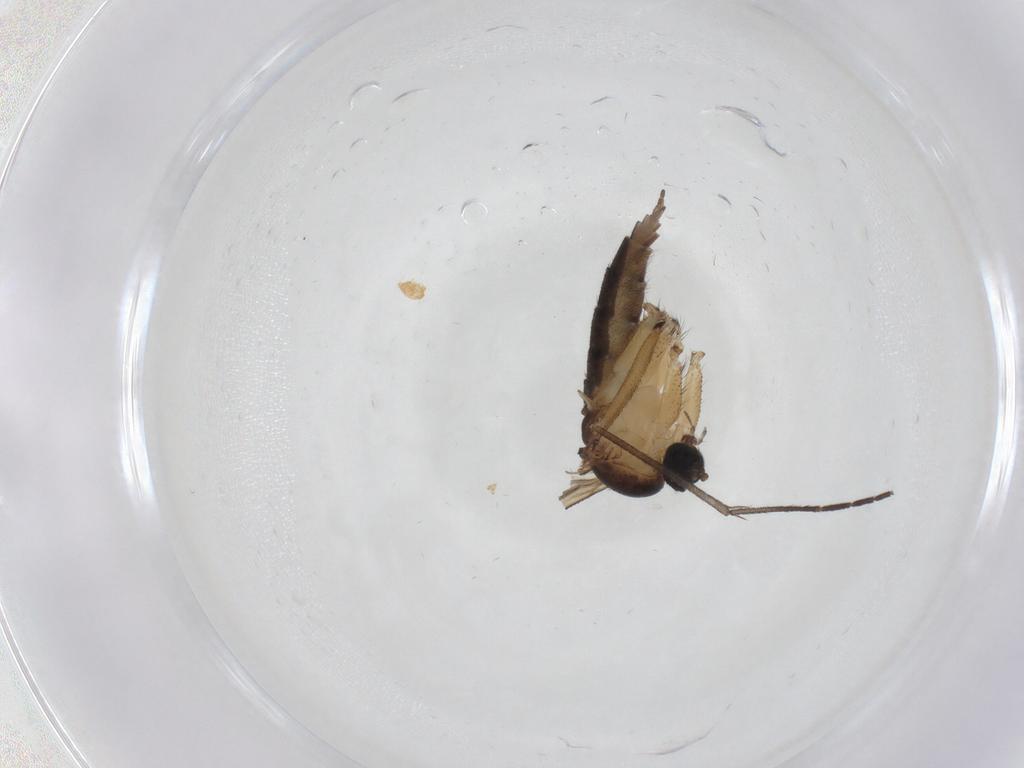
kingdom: Animalia
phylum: Arthropoda
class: Insecta
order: Diptera
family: Sciaridae
